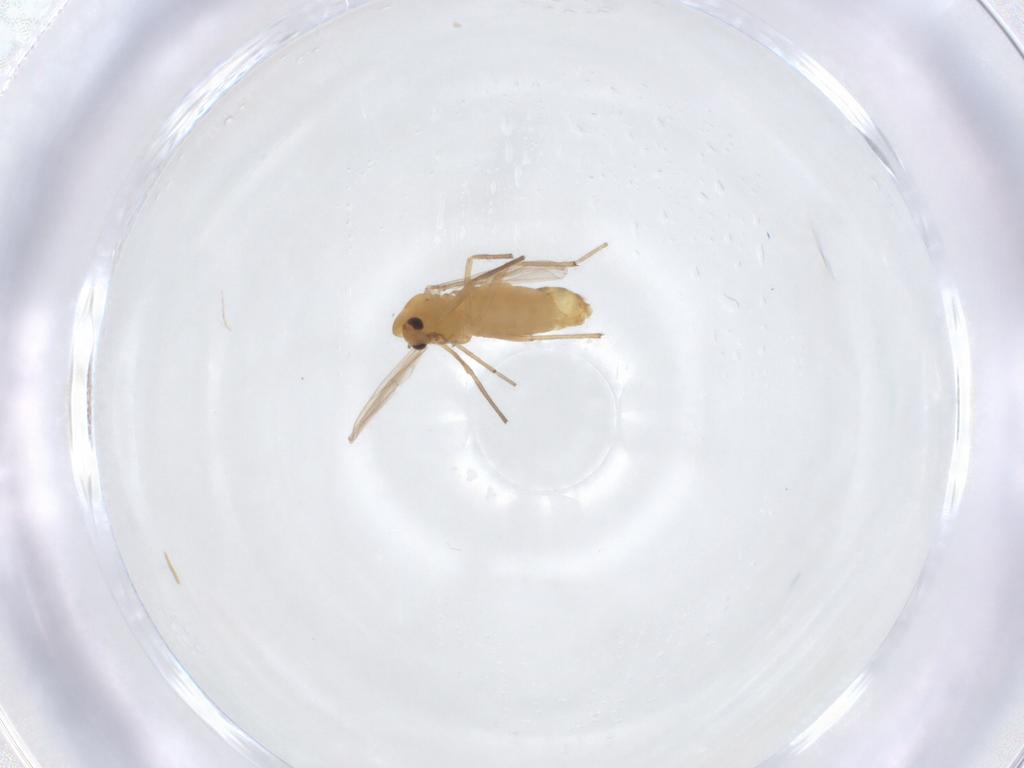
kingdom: Animalia
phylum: Arthropoda
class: Insecta
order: Diptera
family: Chironomidae
